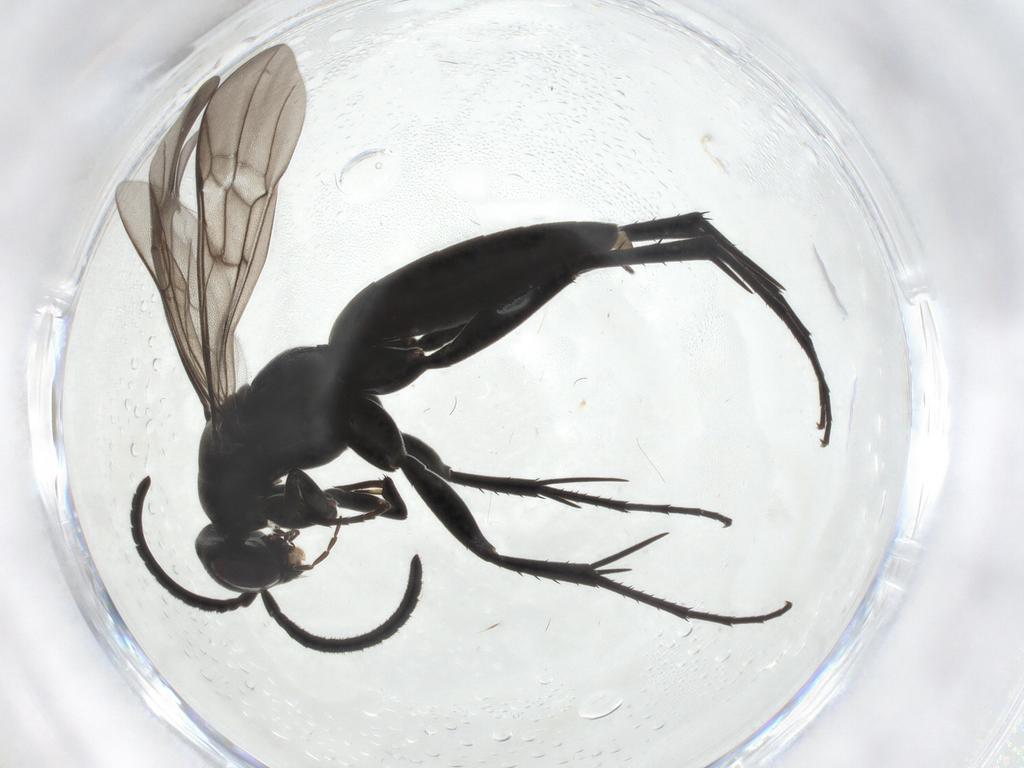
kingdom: Animalia
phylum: Arthropoda
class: Insecta
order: Hymenoptera
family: Pompilidae
